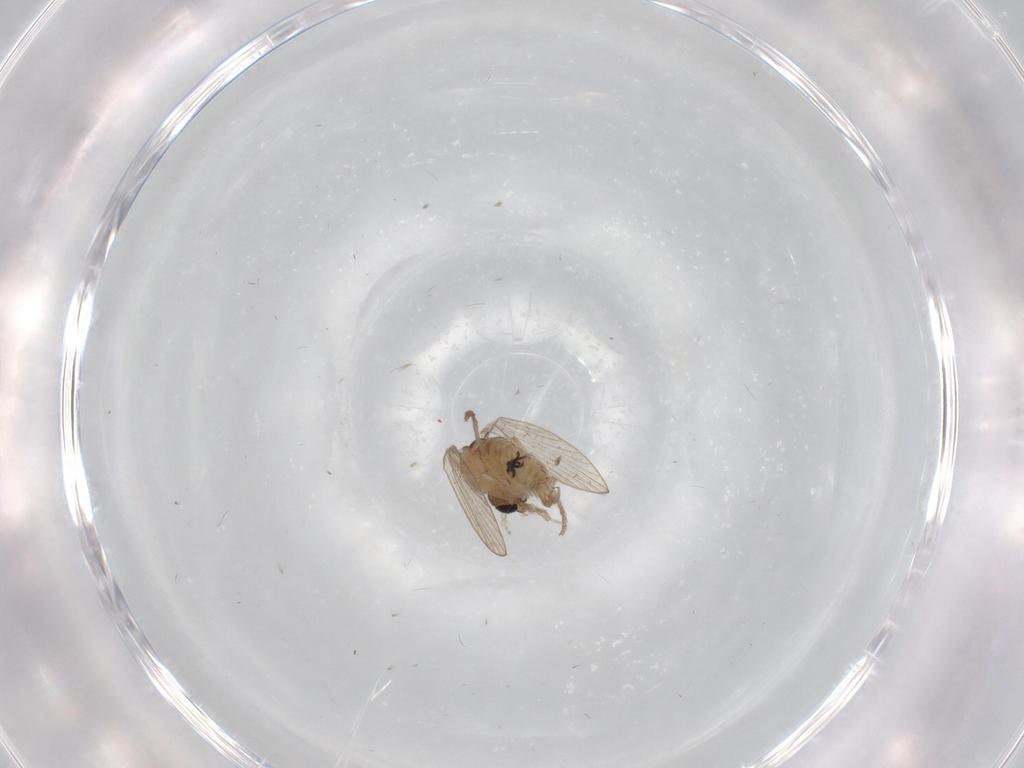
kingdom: Animalia
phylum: Arthropoda
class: Insecta
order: Diptera
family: Psychodidae
